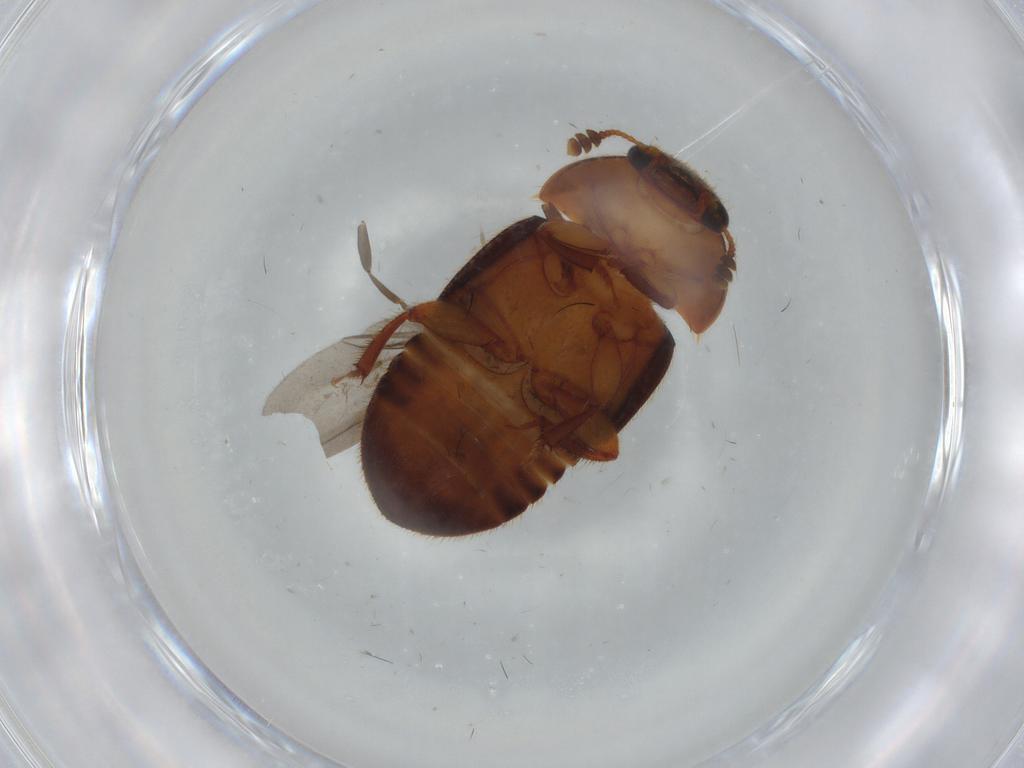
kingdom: Animalia
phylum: Arthropoda
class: Insecta
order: Coleoptera
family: Nitidulidae
